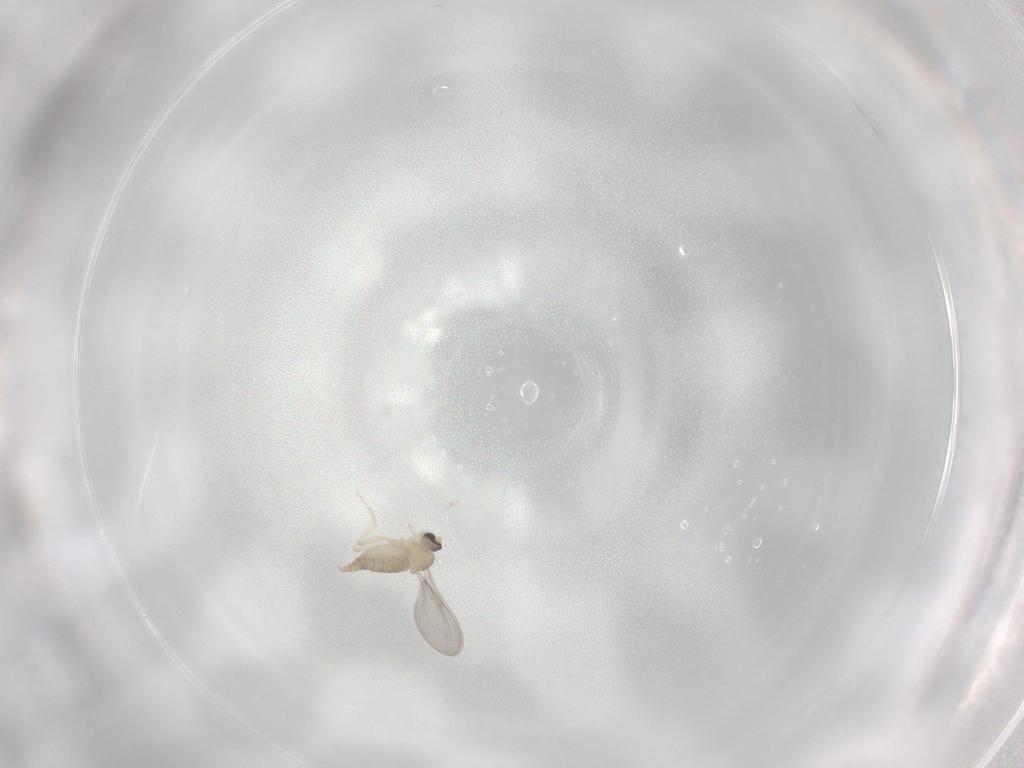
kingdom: Animalia
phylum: Arthropoda
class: Insecta
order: Diptera
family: Cecidomyiidae
